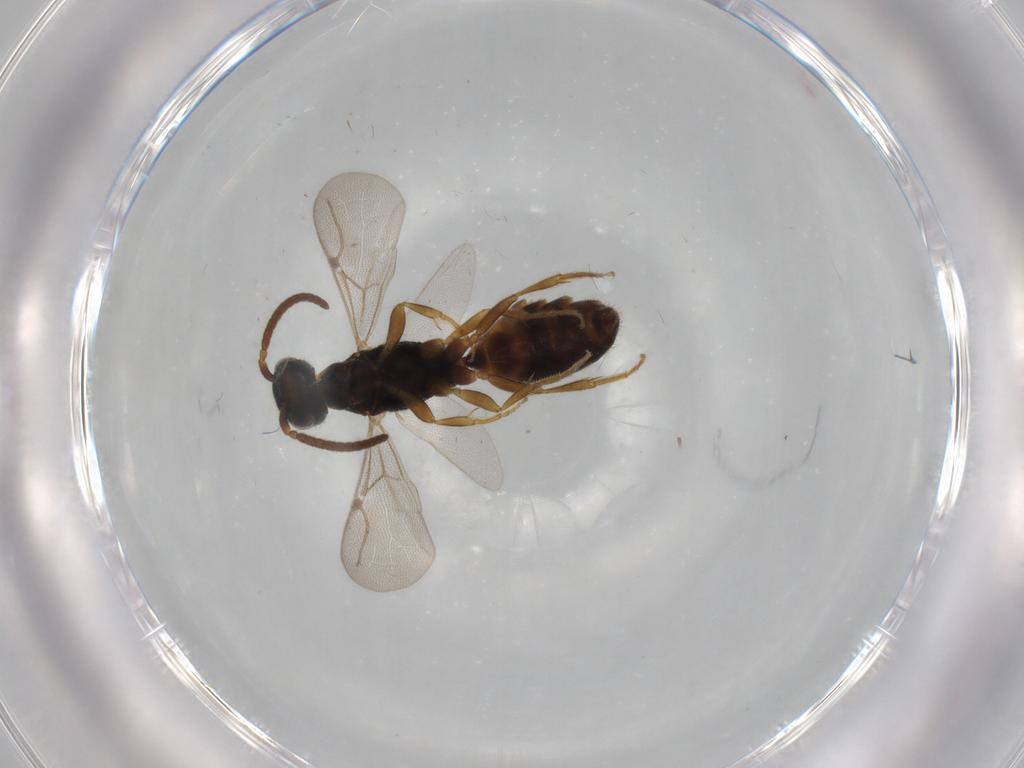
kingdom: Animalia
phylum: Arthropoda
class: Insecta
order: Hymenoptera
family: Bethylidae
